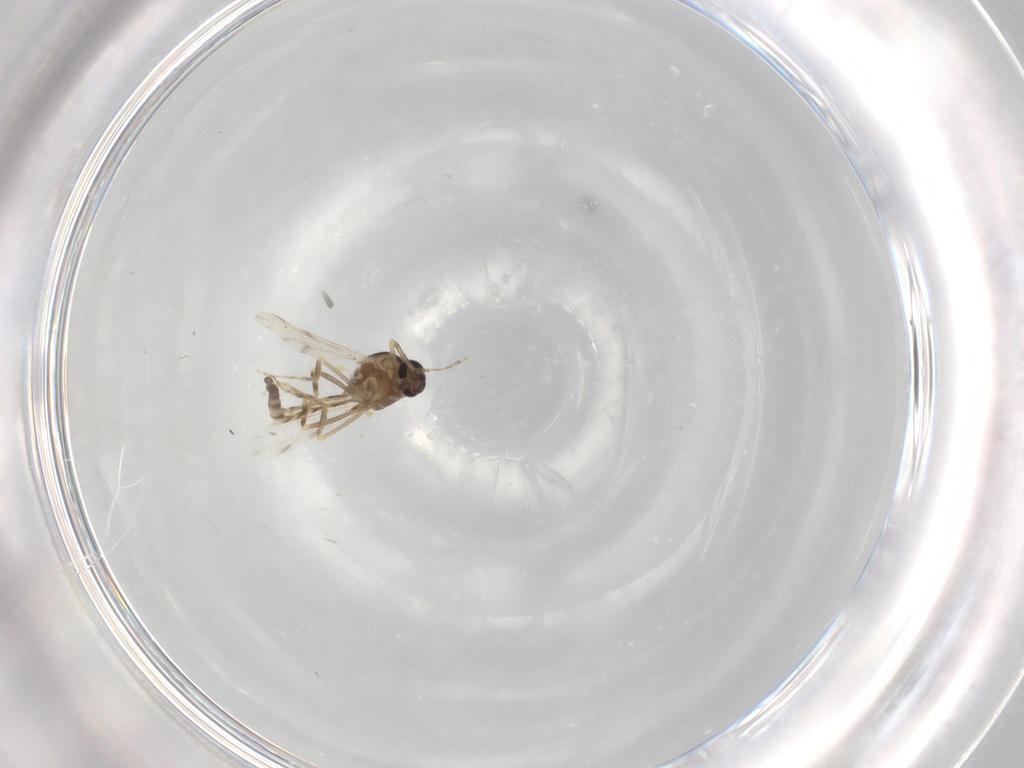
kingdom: Animalia
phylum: Arthropoda
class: Insecta
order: Diptera
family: Ceratopogonidae
